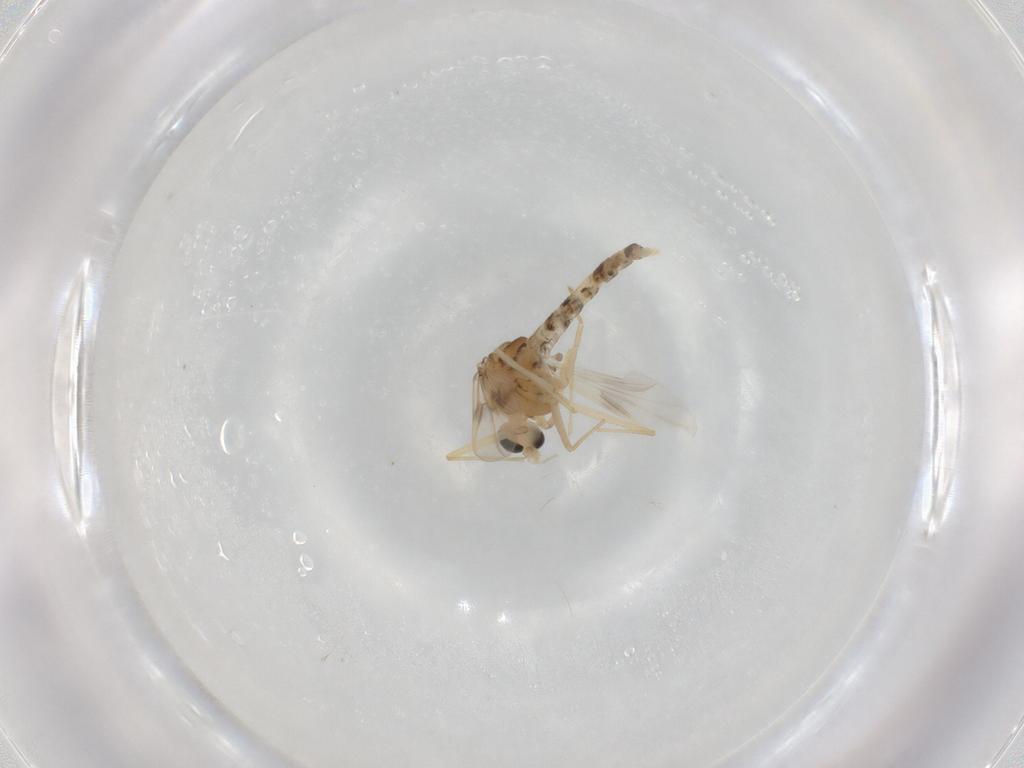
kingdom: Animalia
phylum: Arthropoda
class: Insecta
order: Diptera
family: Chironomidae
